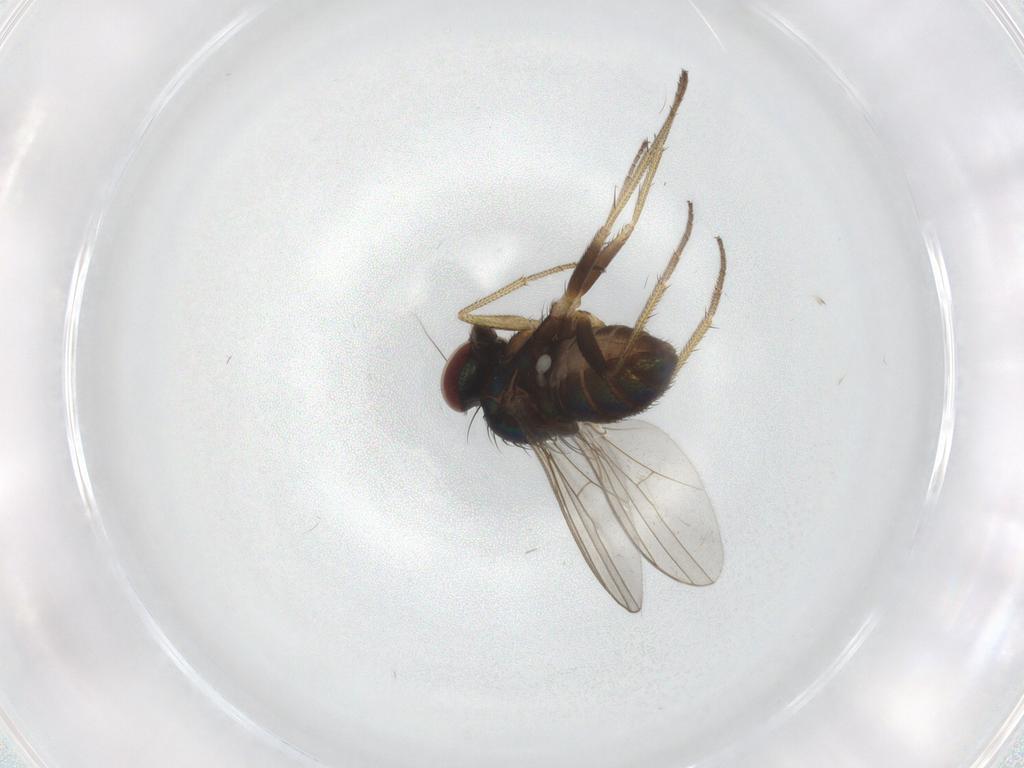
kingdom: Animalia
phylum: Arthropoda
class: Insecta
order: Diptera
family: Dolichopodidae
